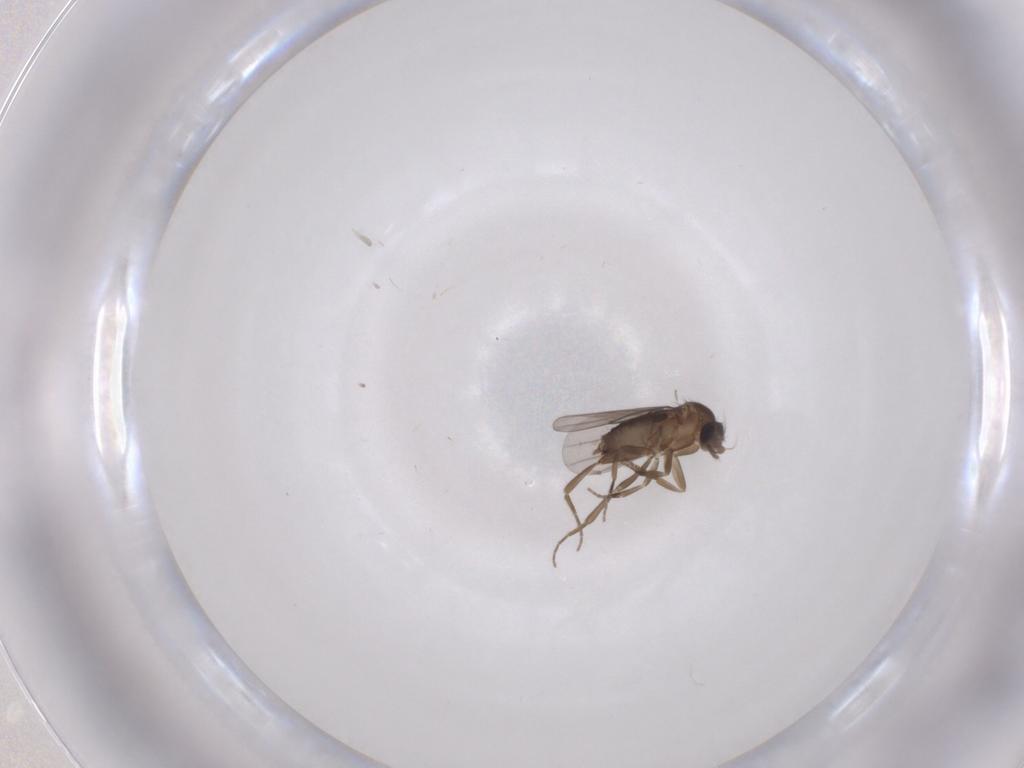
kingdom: Animalia
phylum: Arthropoda
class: Insecta
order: Diptera
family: Phoridae
